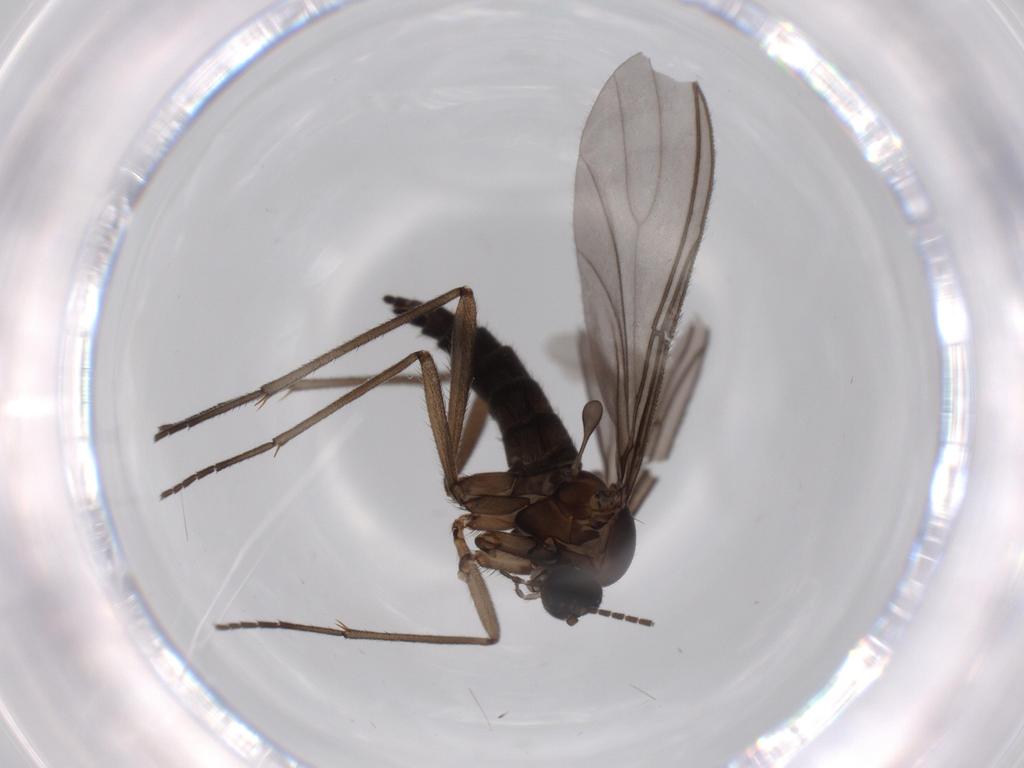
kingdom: Animalia
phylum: Arthropoda
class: Insecta
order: Diptera
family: Sciaridae
